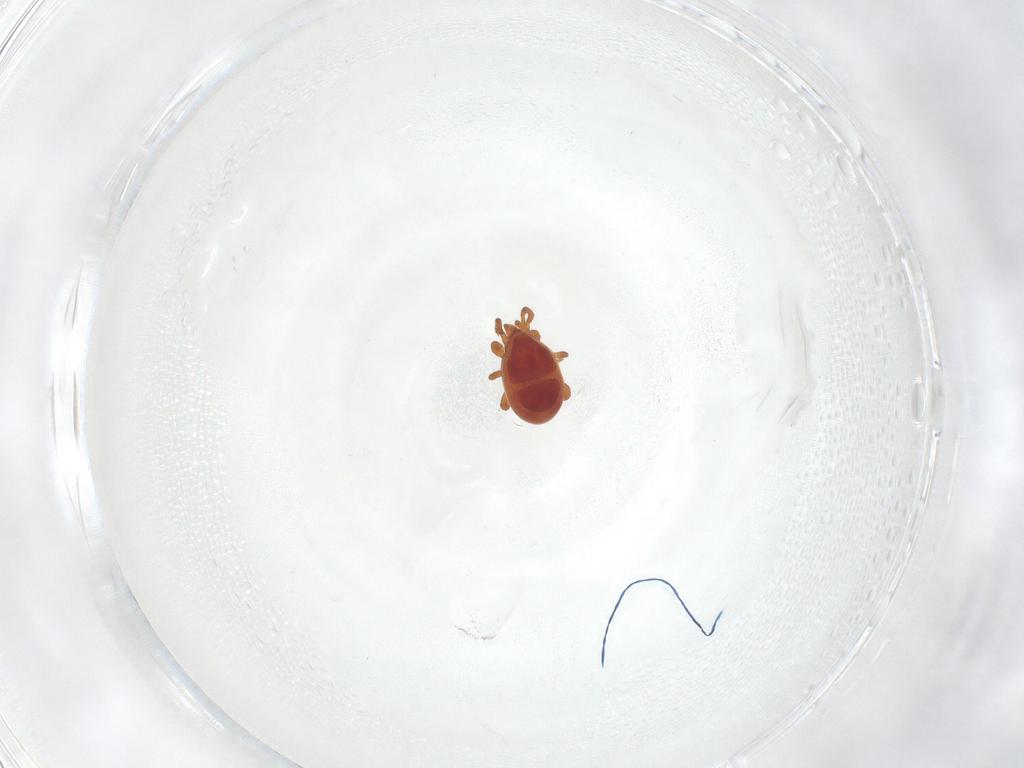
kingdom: Animalia
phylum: Arthropoda
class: Arachnida
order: Mesostigmata
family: Parasitidae
